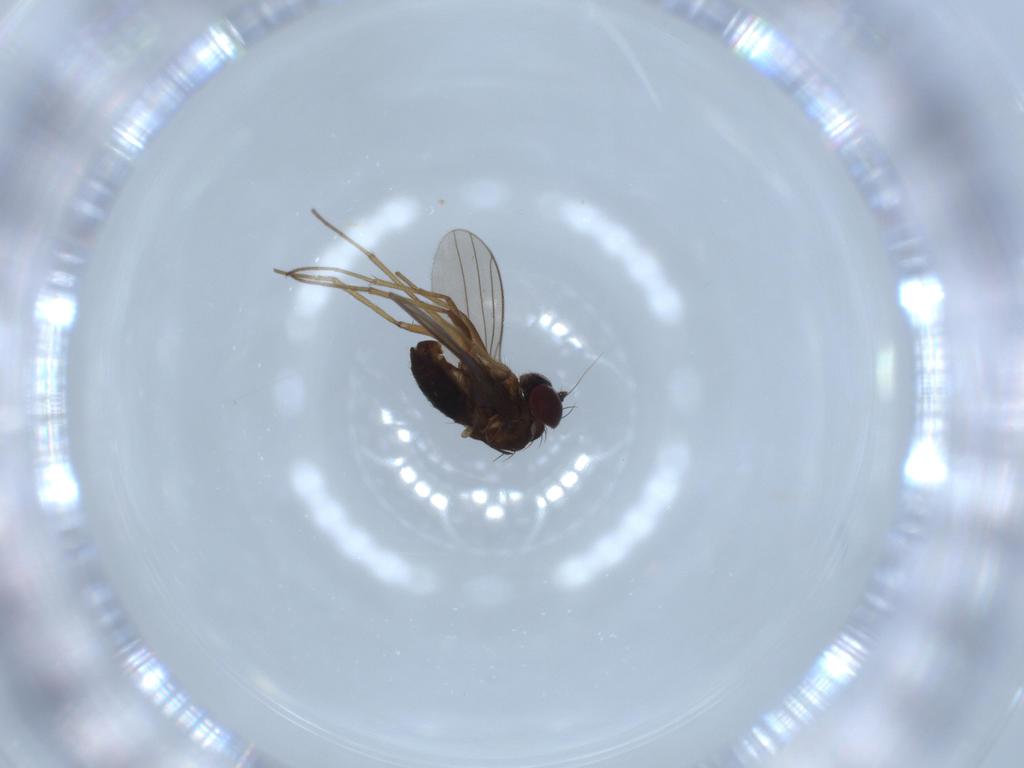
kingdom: Animalia
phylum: Arthropoda
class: Insecta
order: Diptera
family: Dolichopodidae
